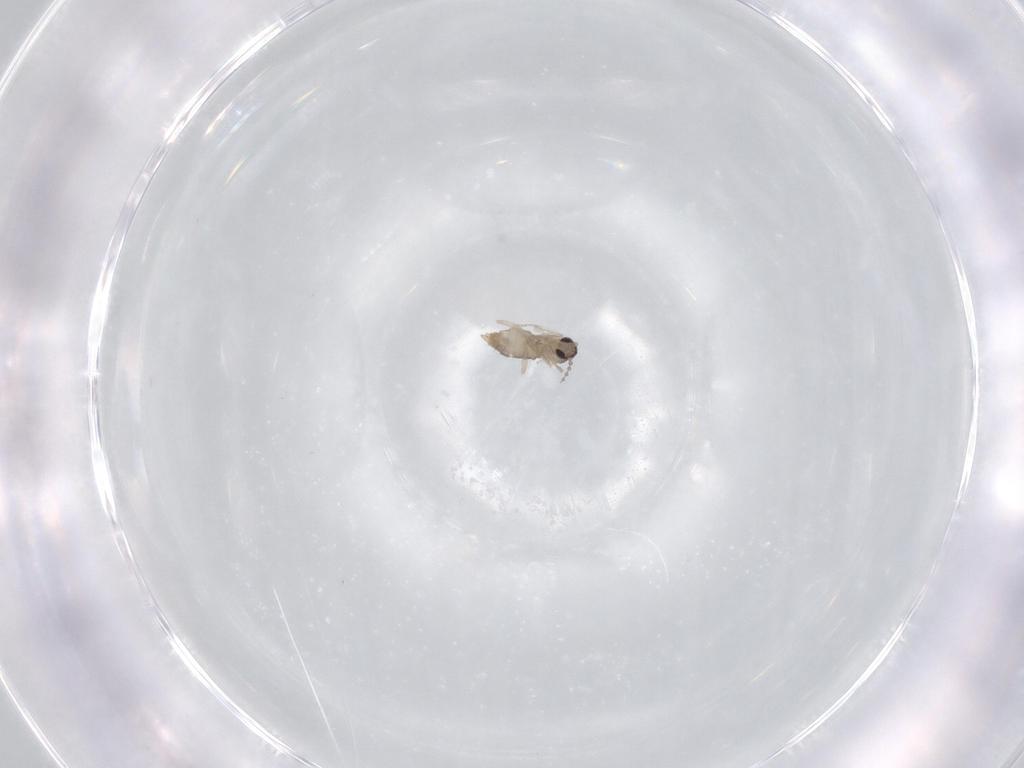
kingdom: Animalia
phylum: Arthropoda
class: Insecta
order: Diptera
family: Cecidomyiidae
